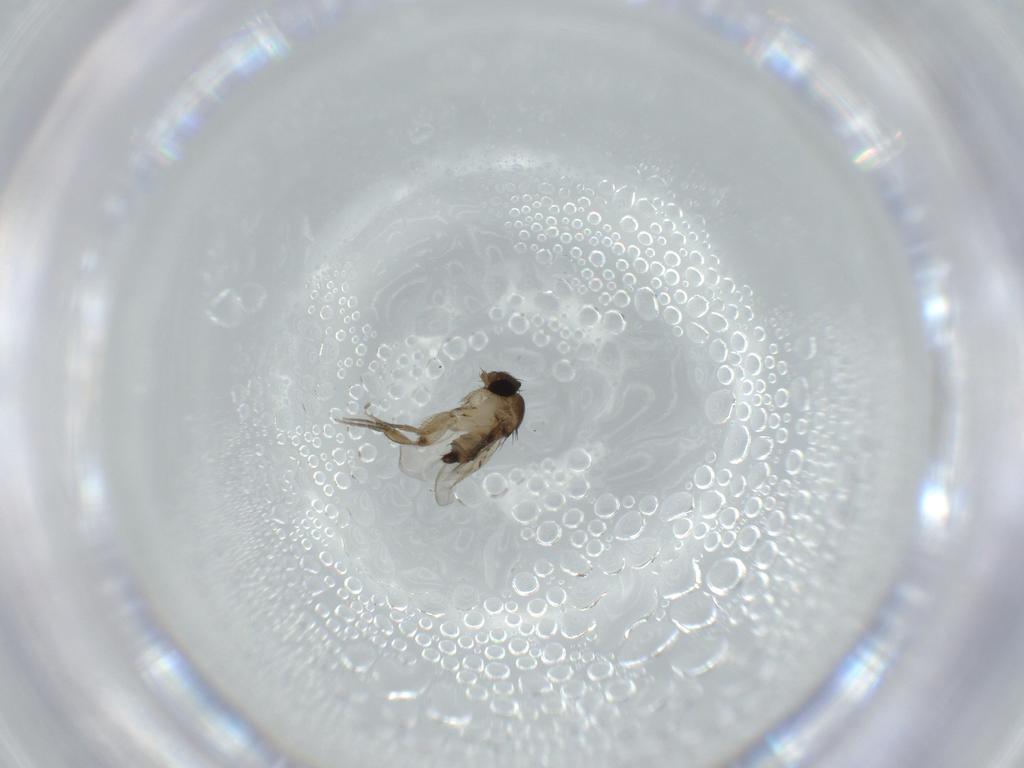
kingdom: Animalia
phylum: Arthropoda
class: Insecta
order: Diptera
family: Phoridae
